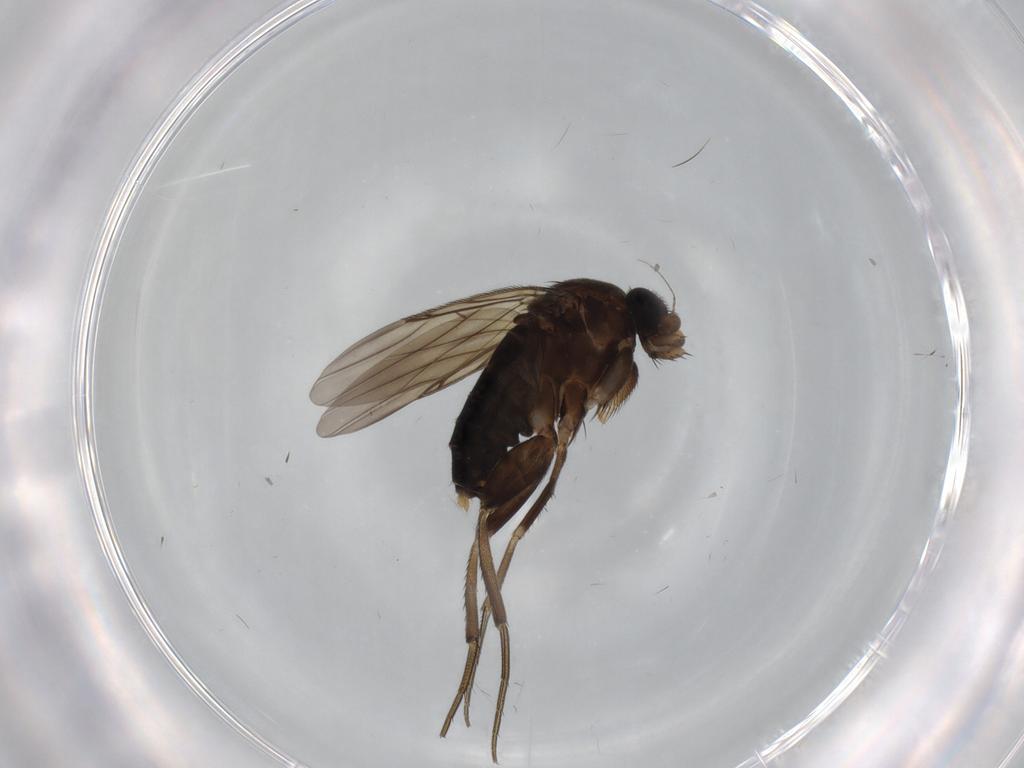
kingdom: Animalia
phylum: Arthropoda
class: Insecta
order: Diptera
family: Phoridae
